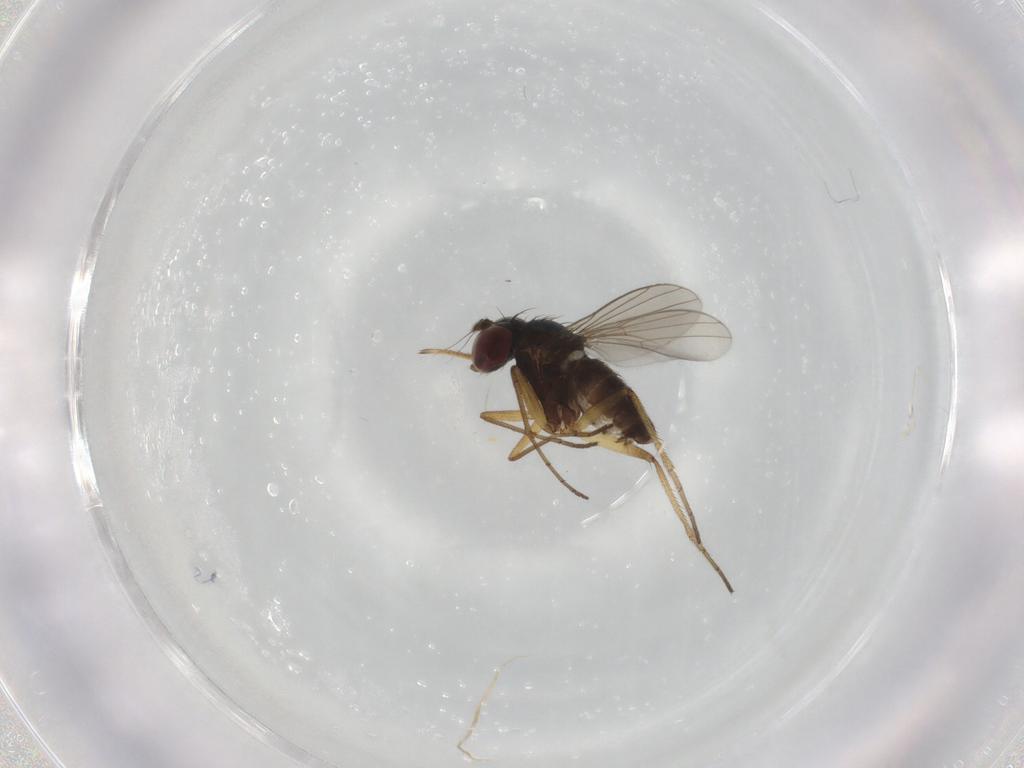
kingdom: Animalia
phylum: Arthropoda
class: Insecta
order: Diptera
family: Dolichopodidae
